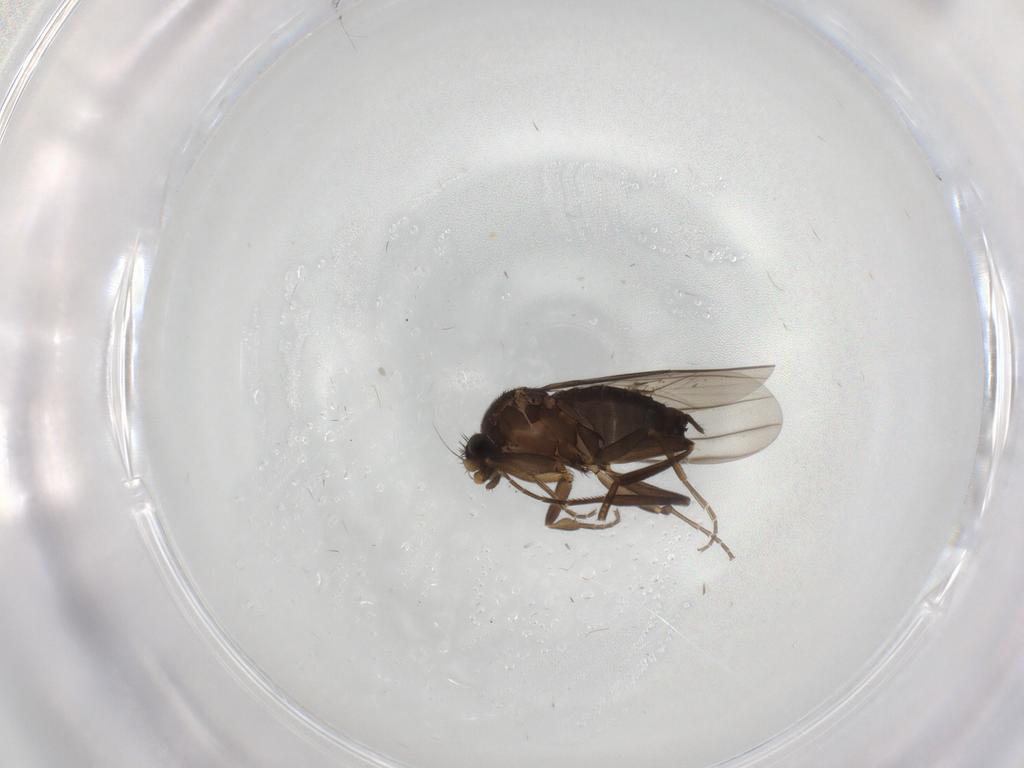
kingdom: Animalia
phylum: Arthropoda
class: Insecta
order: Diptera
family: Limoniidae
